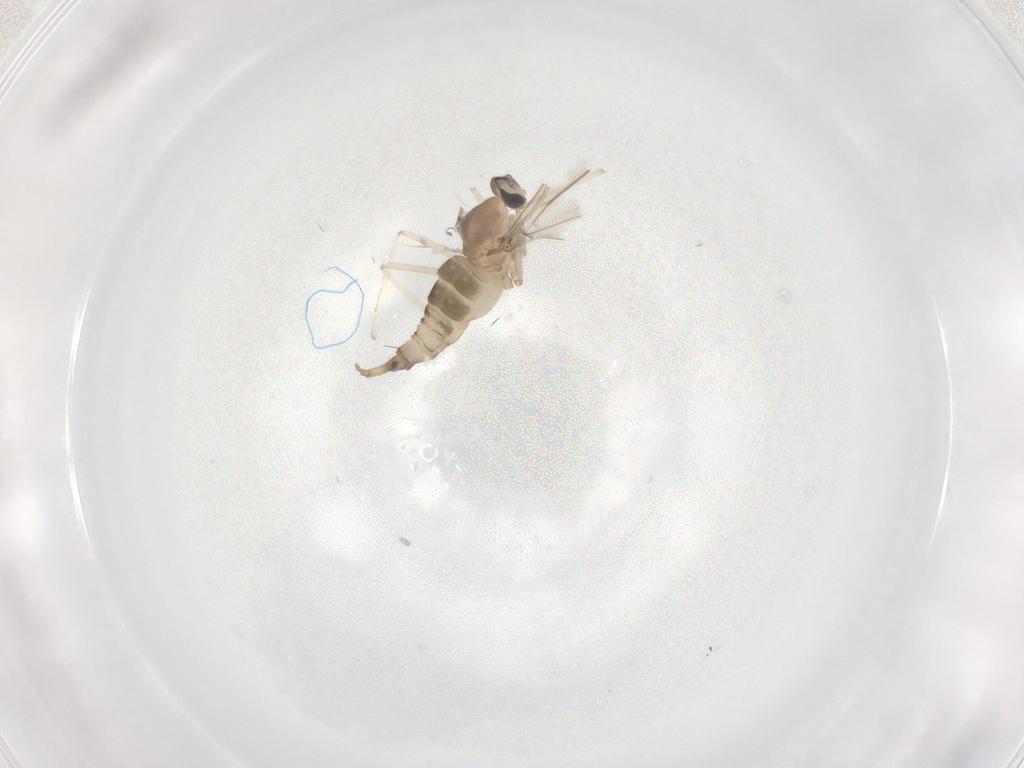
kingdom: Animalia
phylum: Arthropoda
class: Insecta
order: Diptera
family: Cecidomyiidae
